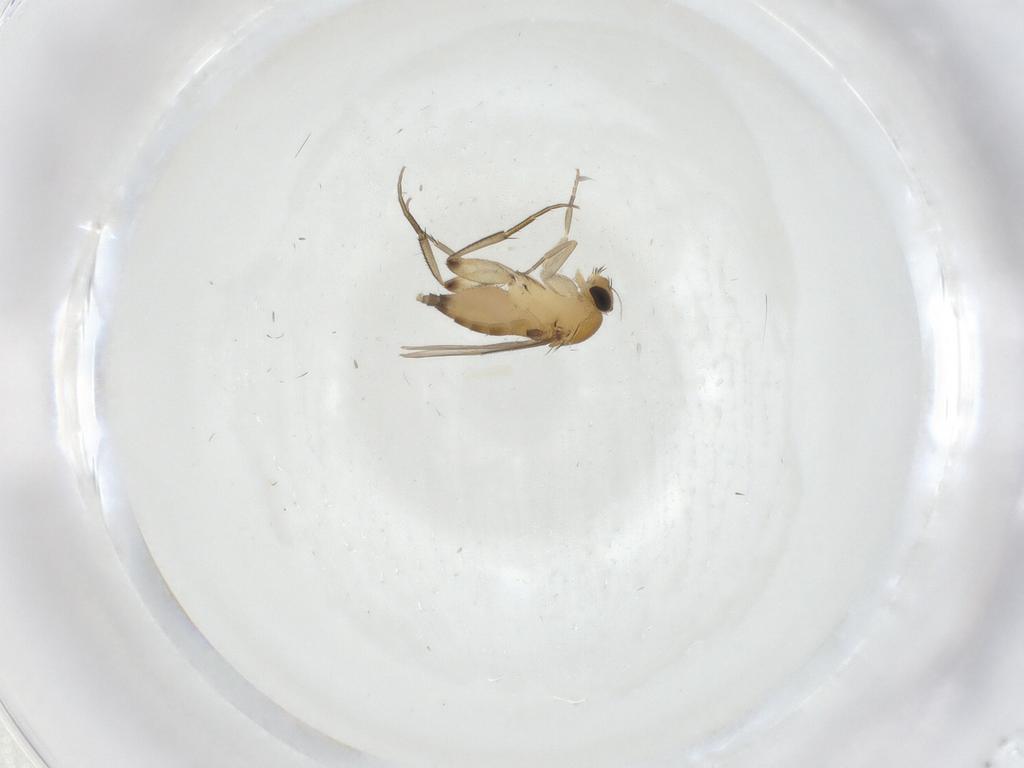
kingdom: Animalia
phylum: Arthropoda
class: Insecta
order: Diptera
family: Phoridae
